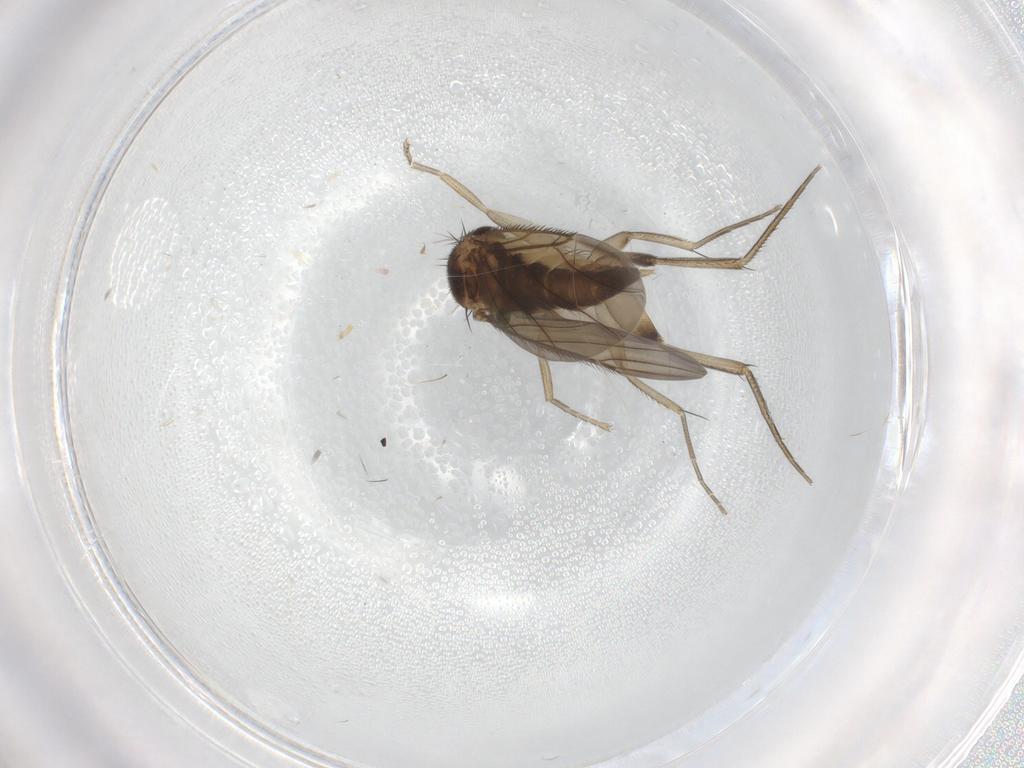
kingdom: Animalia
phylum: Arthropoda
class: Insecta
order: Diptera
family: Phoridae
